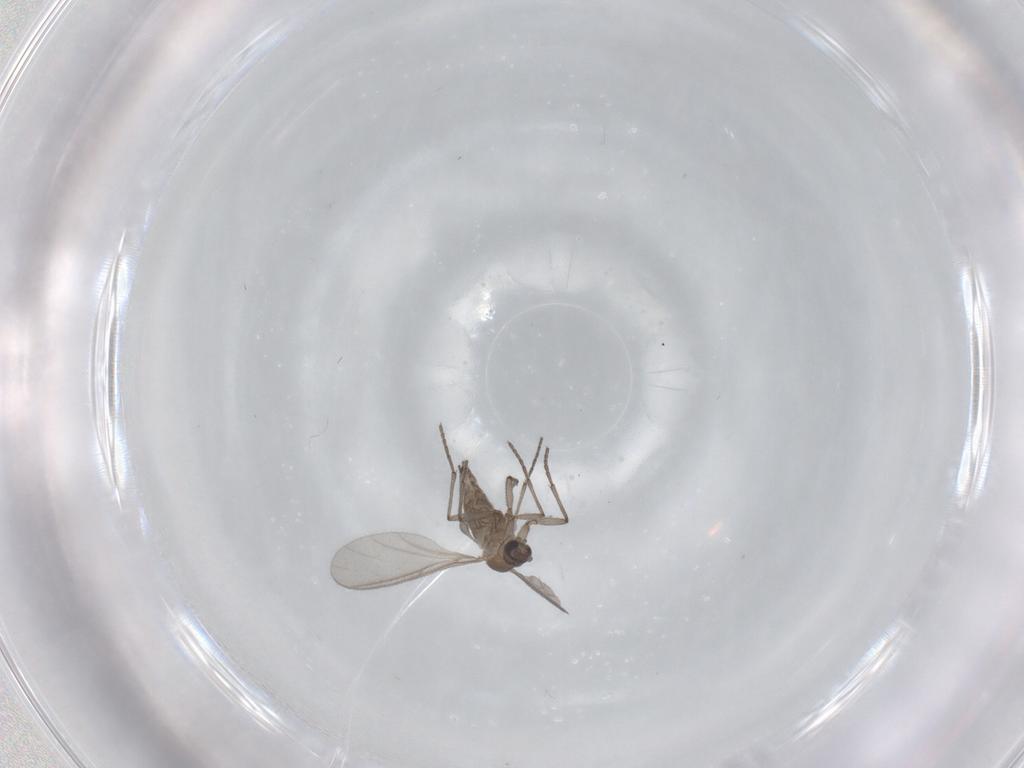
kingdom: Animalia
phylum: Arthropoda
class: Insecta
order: Diptera
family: Sciaridae
